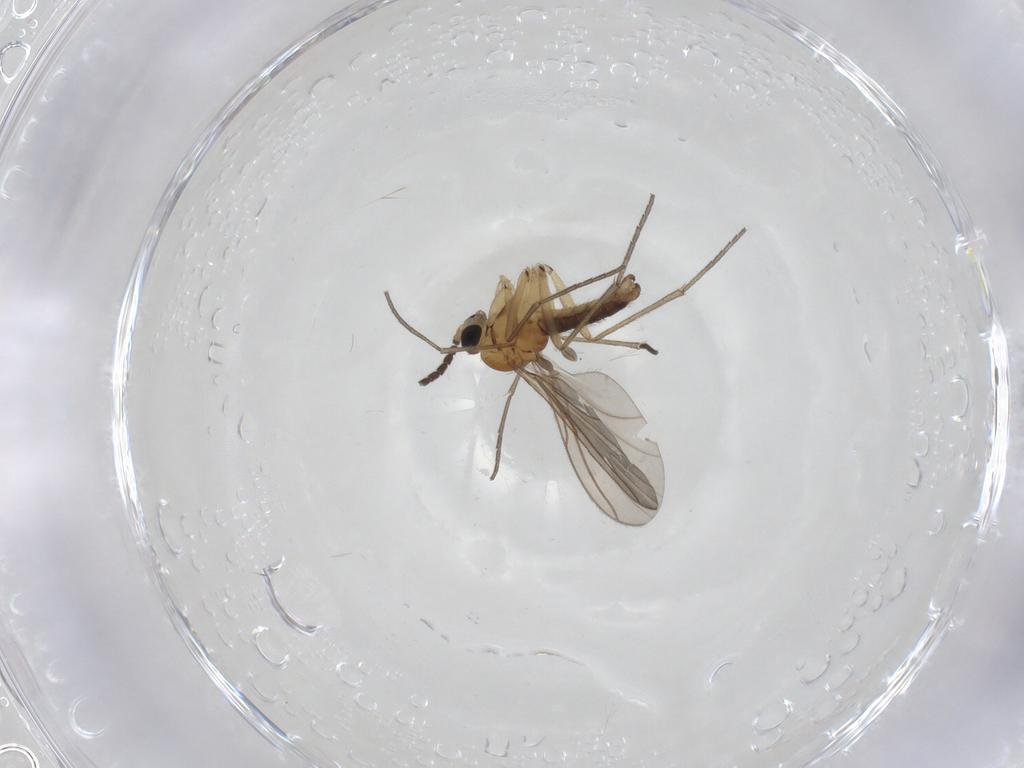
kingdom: Animalia
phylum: Arthropoda
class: Insecta
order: Diptera
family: Sciaridae
